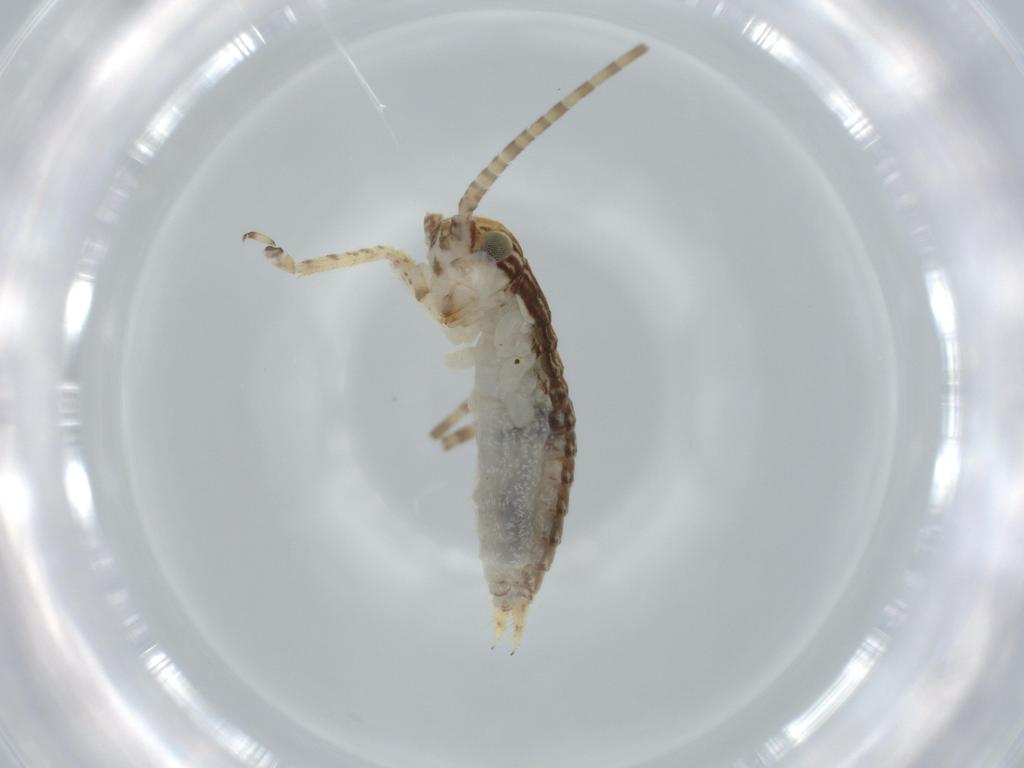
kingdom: Animalia
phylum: Arthropoda
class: Insecta
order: Orthoptera
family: Gryllidae
